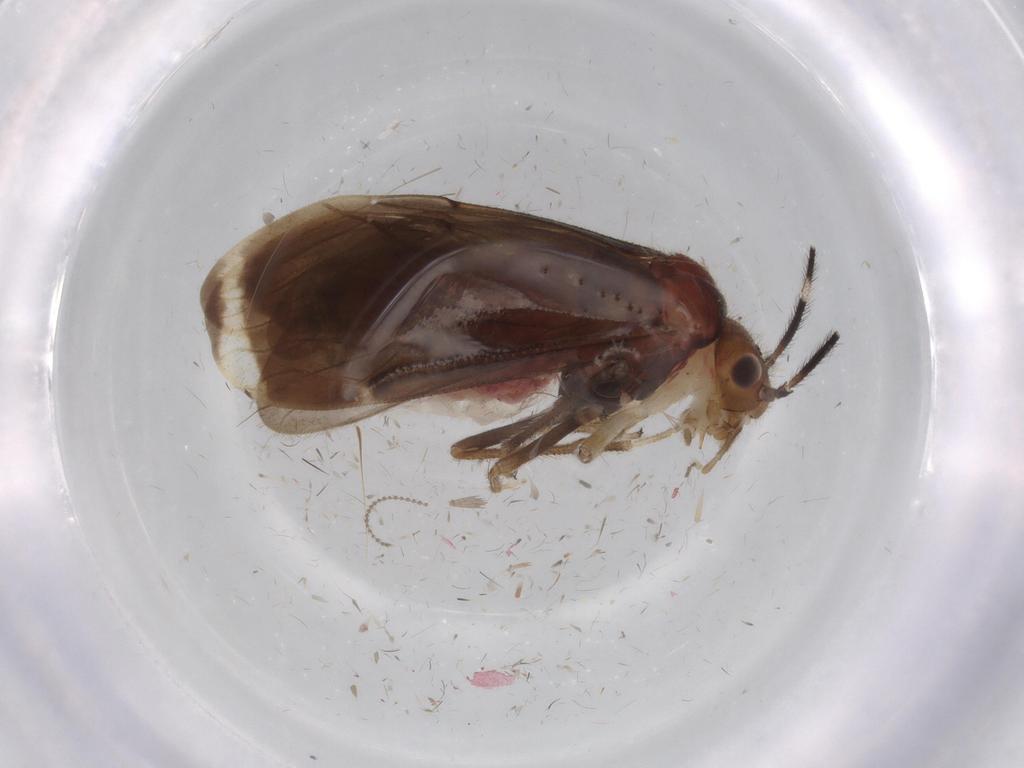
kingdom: Animalia
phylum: Arthropoda
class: Insecta
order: Psocodea
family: Amphipsocidae
